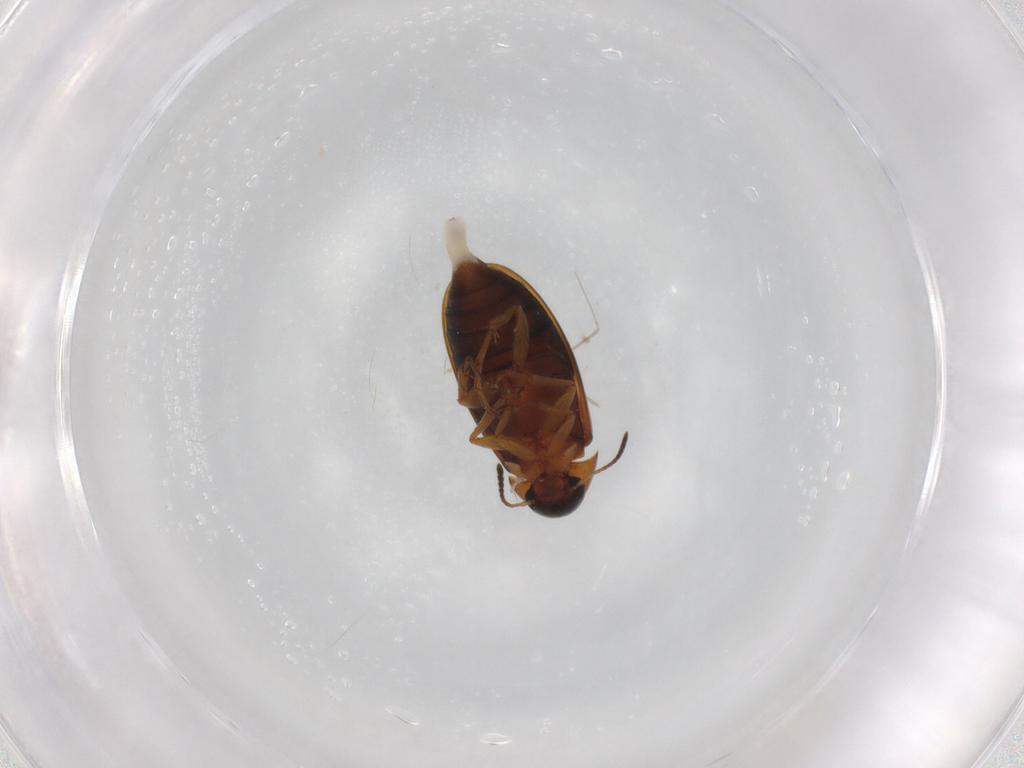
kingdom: Animalia
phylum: Arthropoda
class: Insecta
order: Coleoptera
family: Scraptiidae
